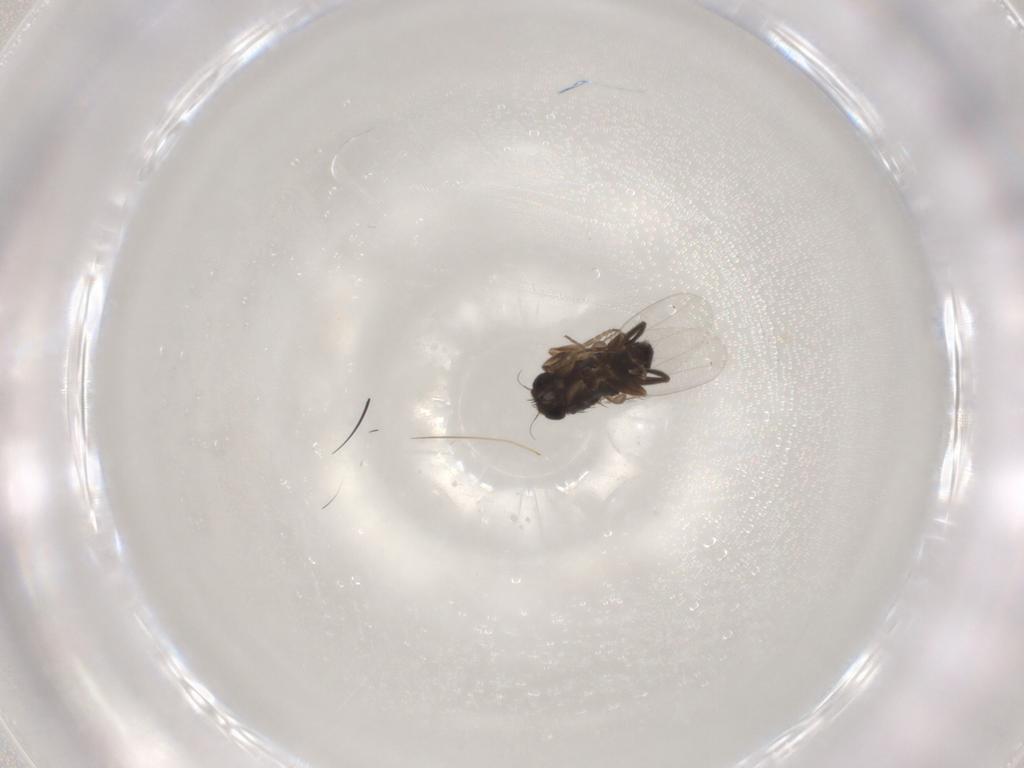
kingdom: Animalia
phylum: Arthropoda
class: Insecta
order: Diptera
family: Phoridae
